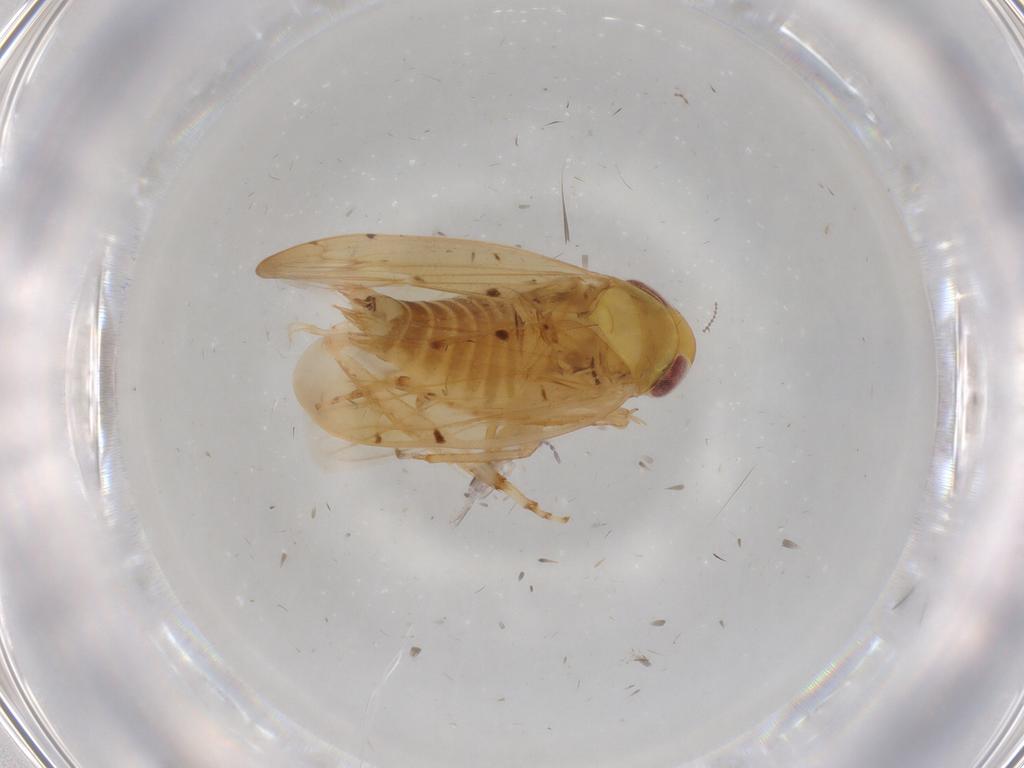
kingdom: Animalia
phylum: Arthropoda
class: Insecta
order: Hemiptera
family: Cicadellidae
